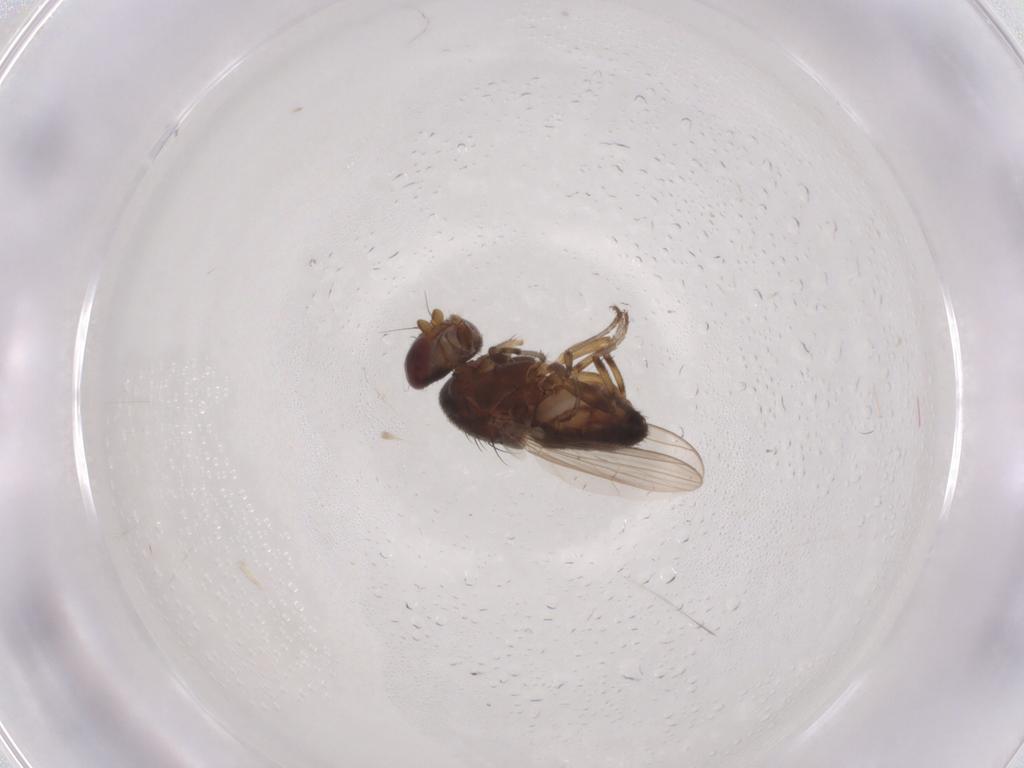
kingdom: Animalia
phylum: Arthropoda
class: Insecta
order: Diptera
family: Heleomyzidae
